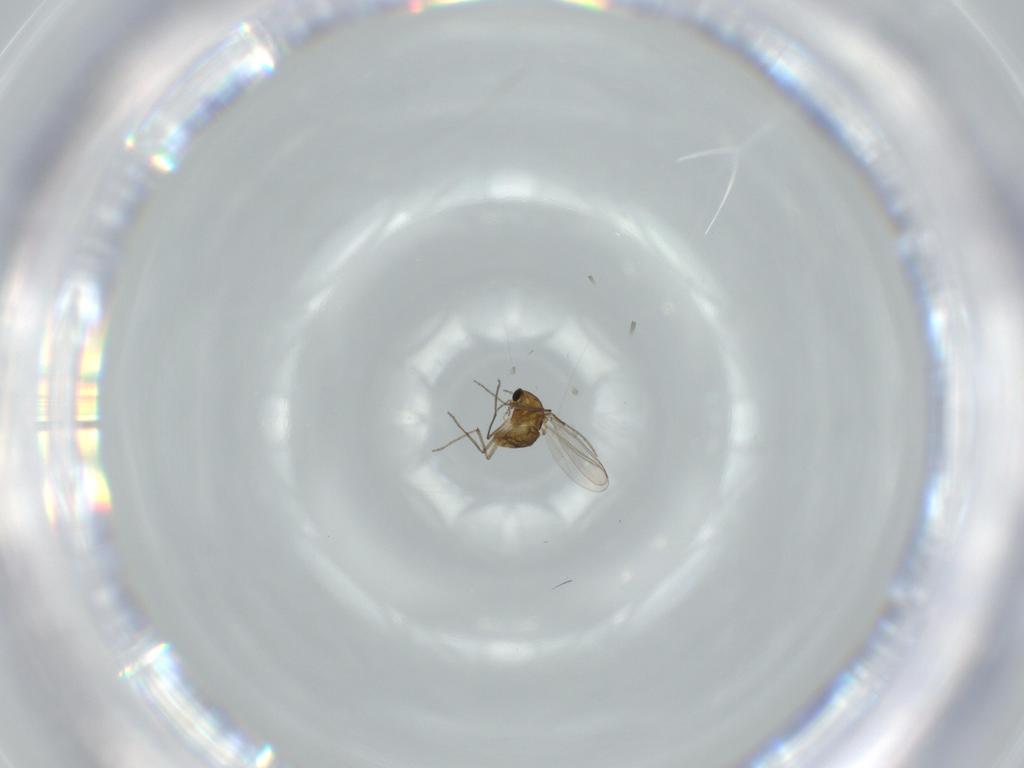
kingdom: Animalia
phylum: Arthropoda
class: Insecta
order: Diptera
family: Chironomidae
